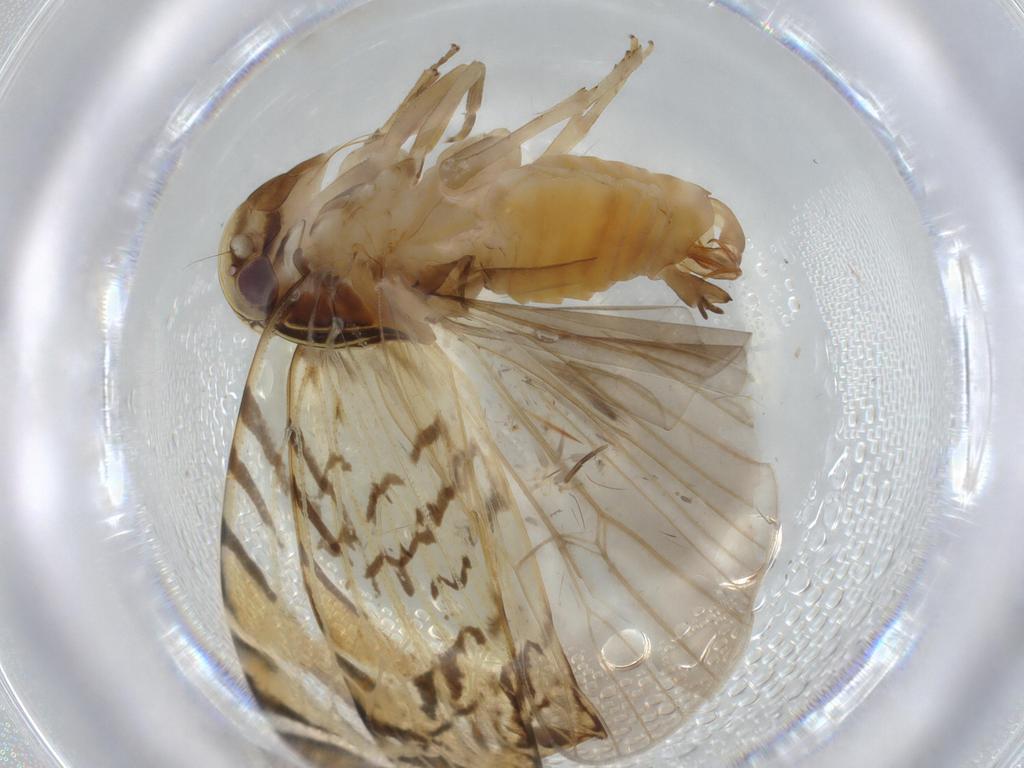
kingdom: Animalia
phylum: Arthropoda
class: Insecta
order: Hemiptera
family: Cixiidae
